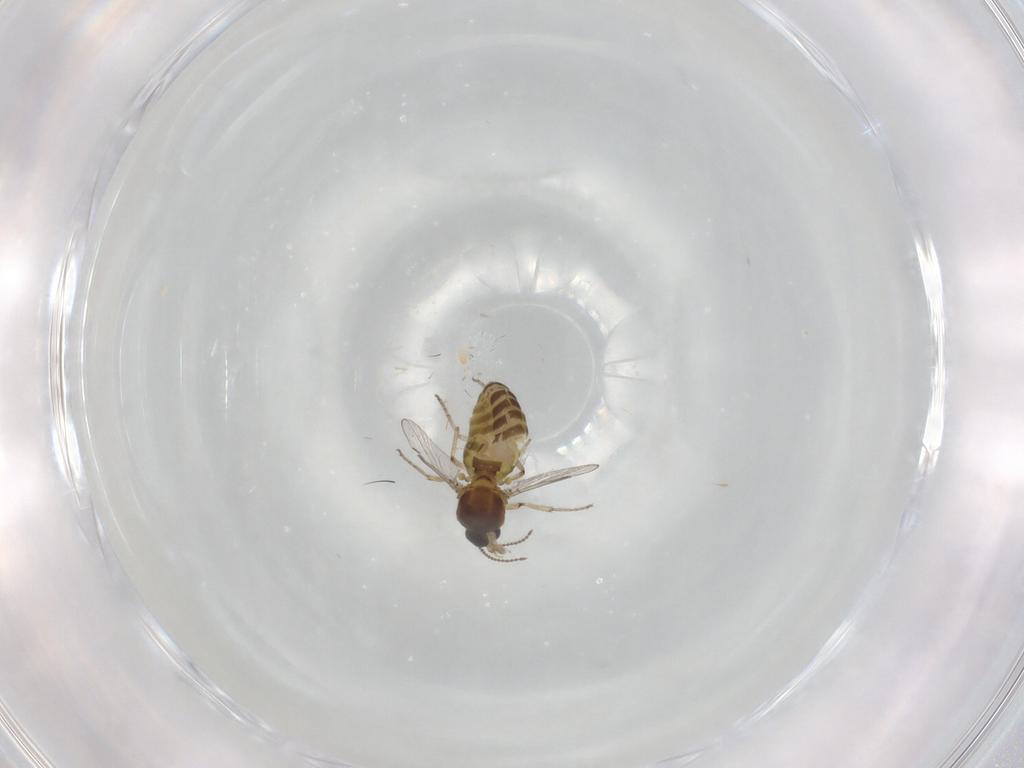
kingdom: Animalia
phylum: Arthropoda
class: Insecta
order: Diptera
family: Ceratopogonidae
